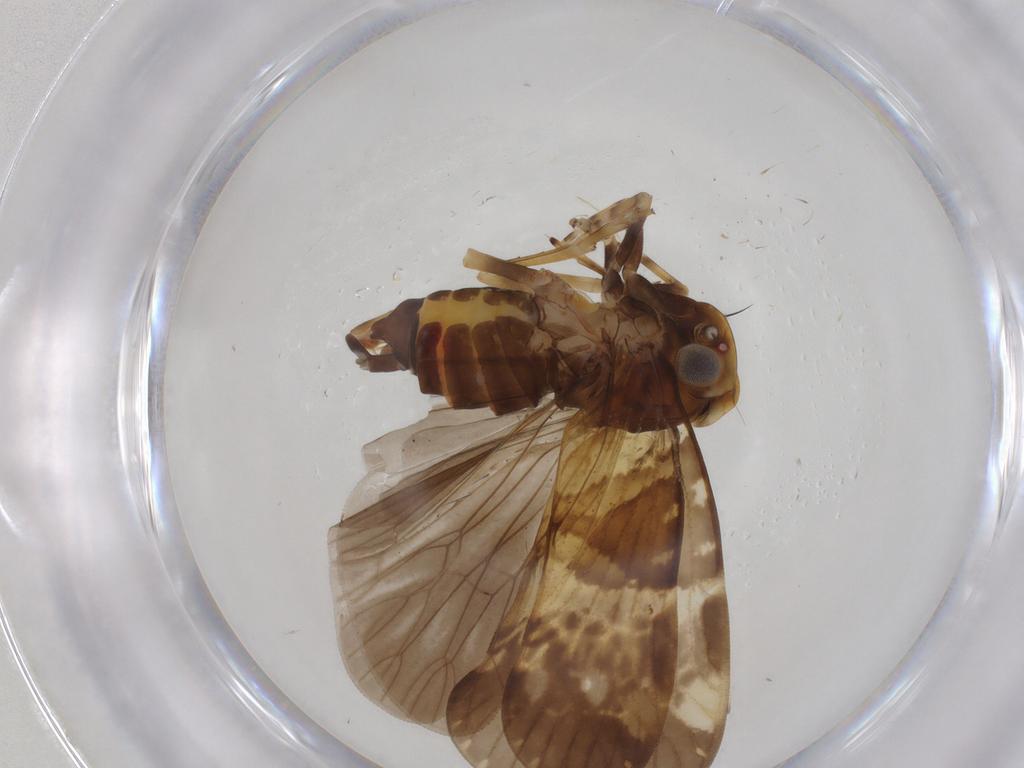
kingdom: Animalia
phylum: Arthropoda
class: Insecta
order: Hemiptera
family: Cixiidae
